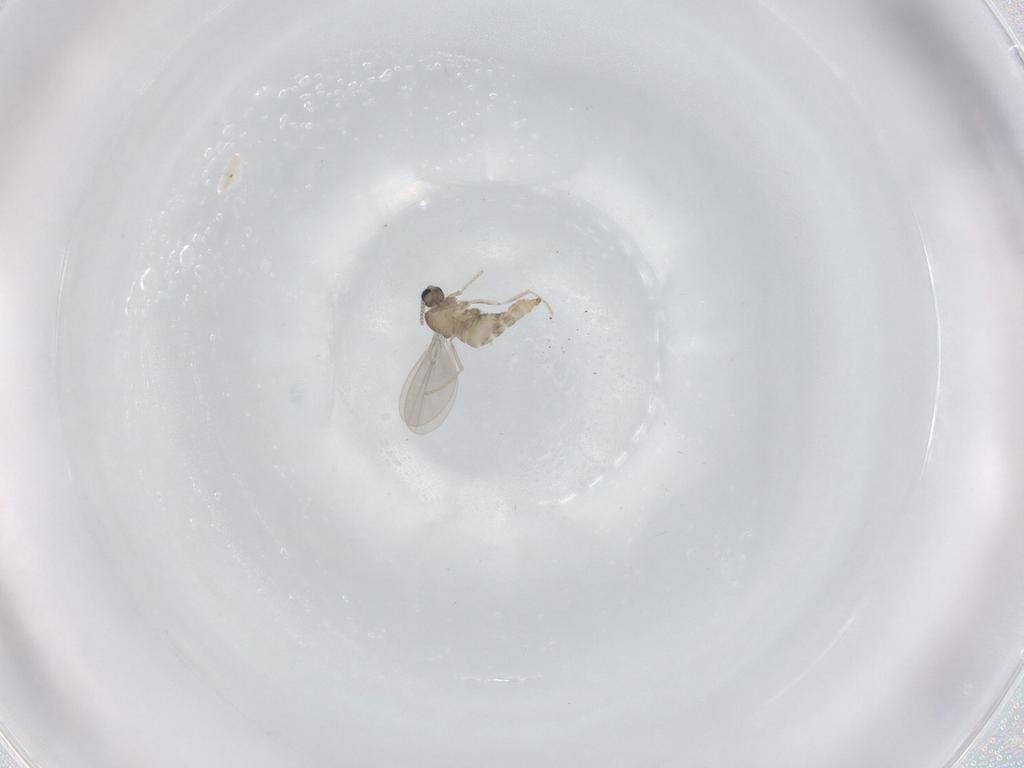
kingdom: Animalia
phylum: Arthropoda
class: Insecta
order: Diptera
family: Cecidomyiidae
